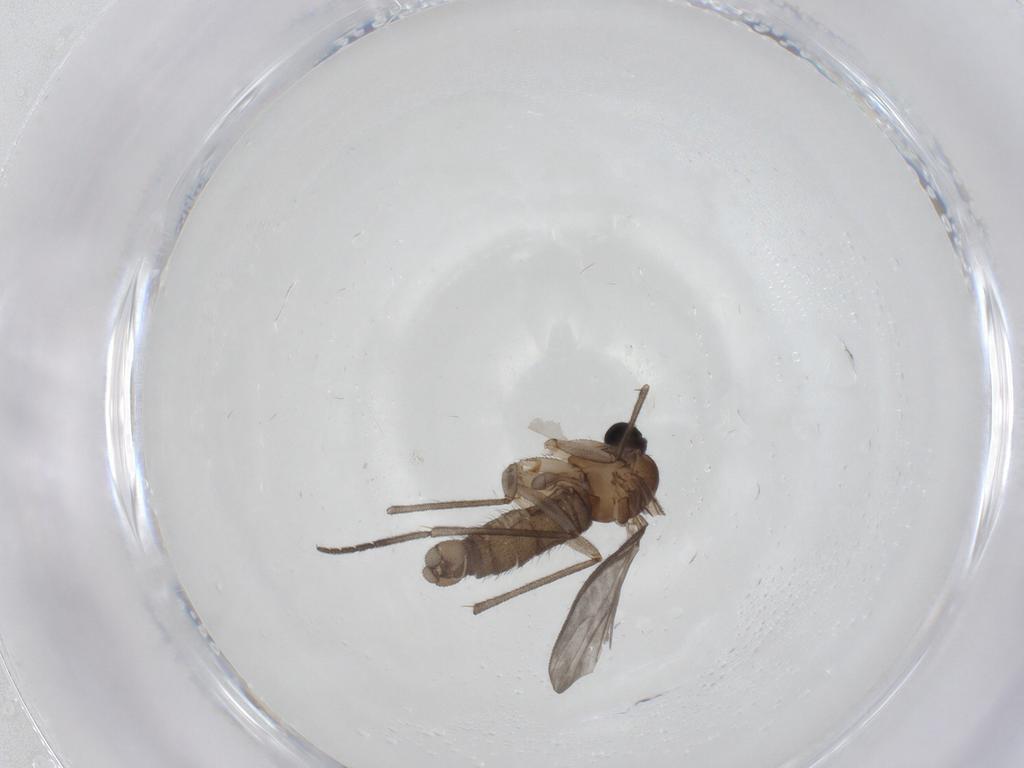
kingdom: Animalia
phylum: Arthropoda
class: Insecta
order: Diptera
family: Sciaridae
